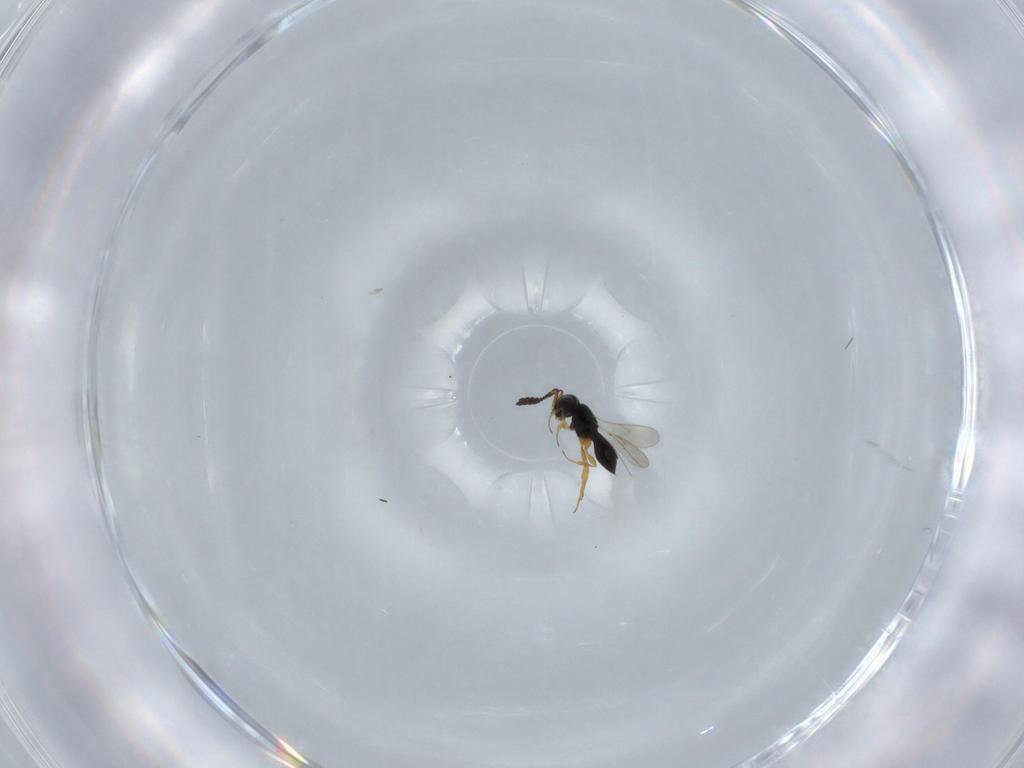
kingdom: Animalia
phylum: Arthropoda
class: Insecta
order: Hymenoptera
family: Scelionidae
